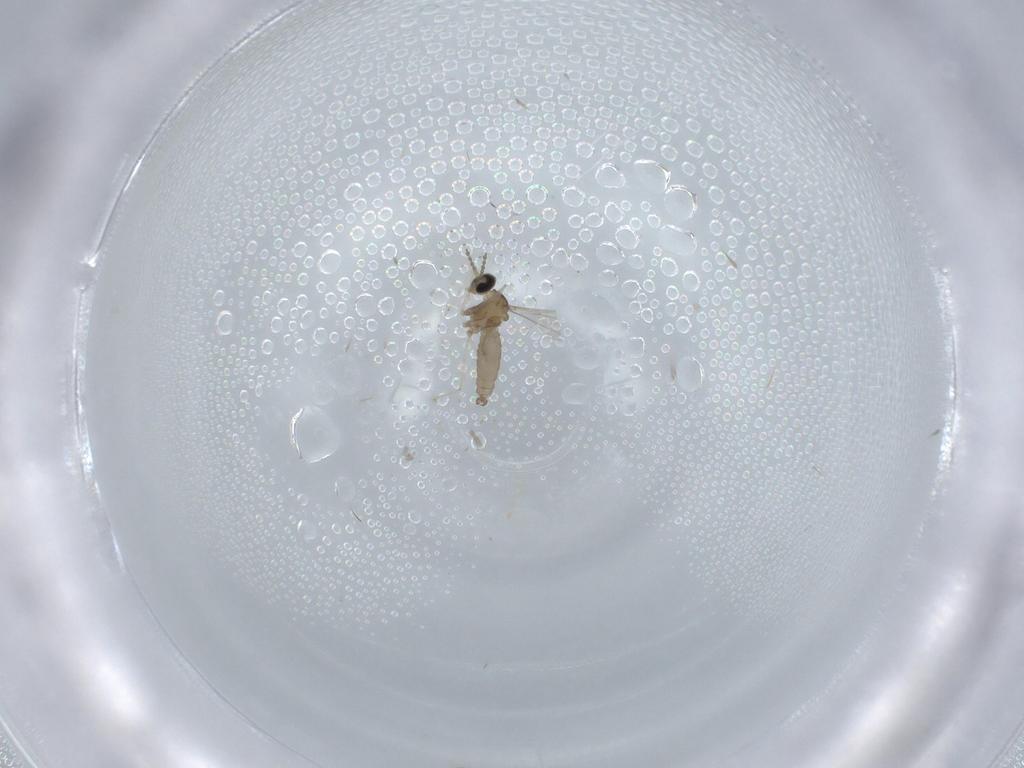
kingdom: Animalia
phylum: Arthropoda
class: Insecta
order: Diptera
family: Cecidomyiidae
